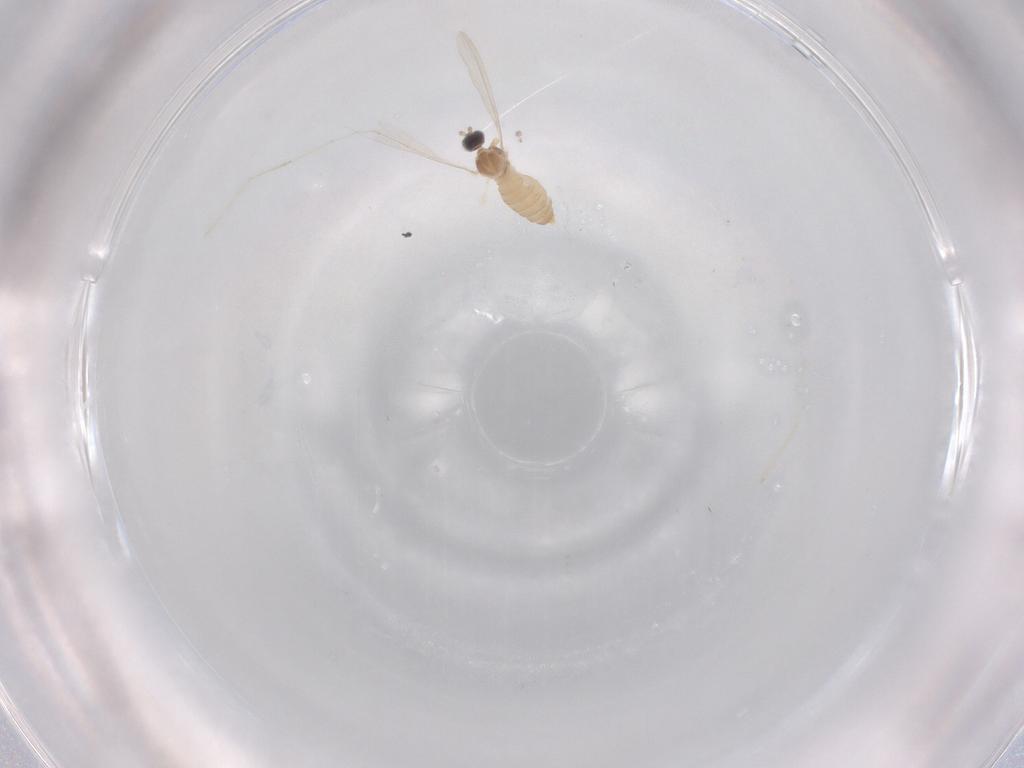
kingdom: Animalia
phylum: Arthropoda
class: Insecta
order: Diptera
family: Cecidomyiidae
